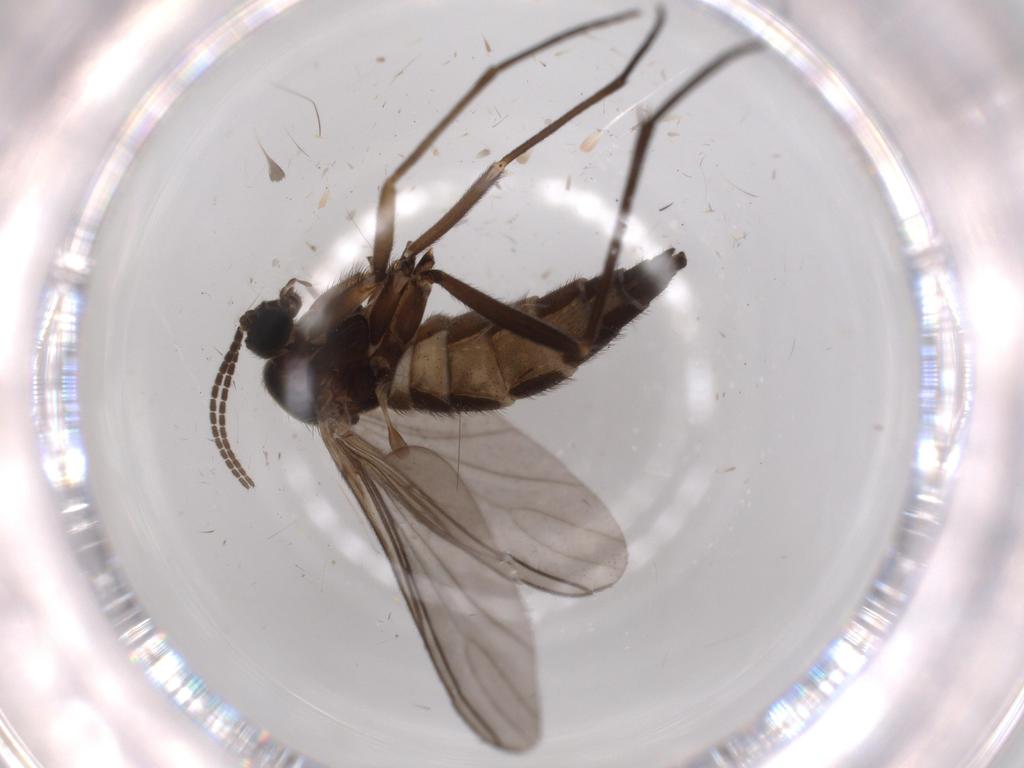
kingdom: Animalia
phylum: Arthropoda
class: Insecta
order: Diptera
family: Sciaridae
